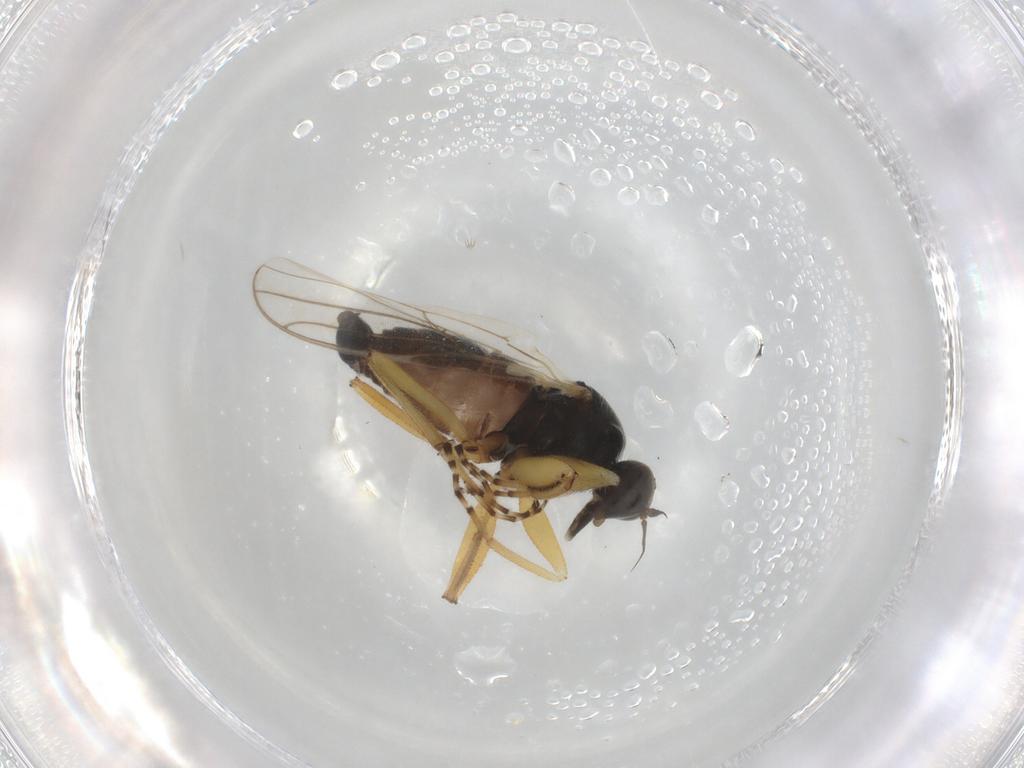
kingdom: Animalia
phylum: Arthropoda
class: Insecta
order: Diptera
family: Hybotidae
